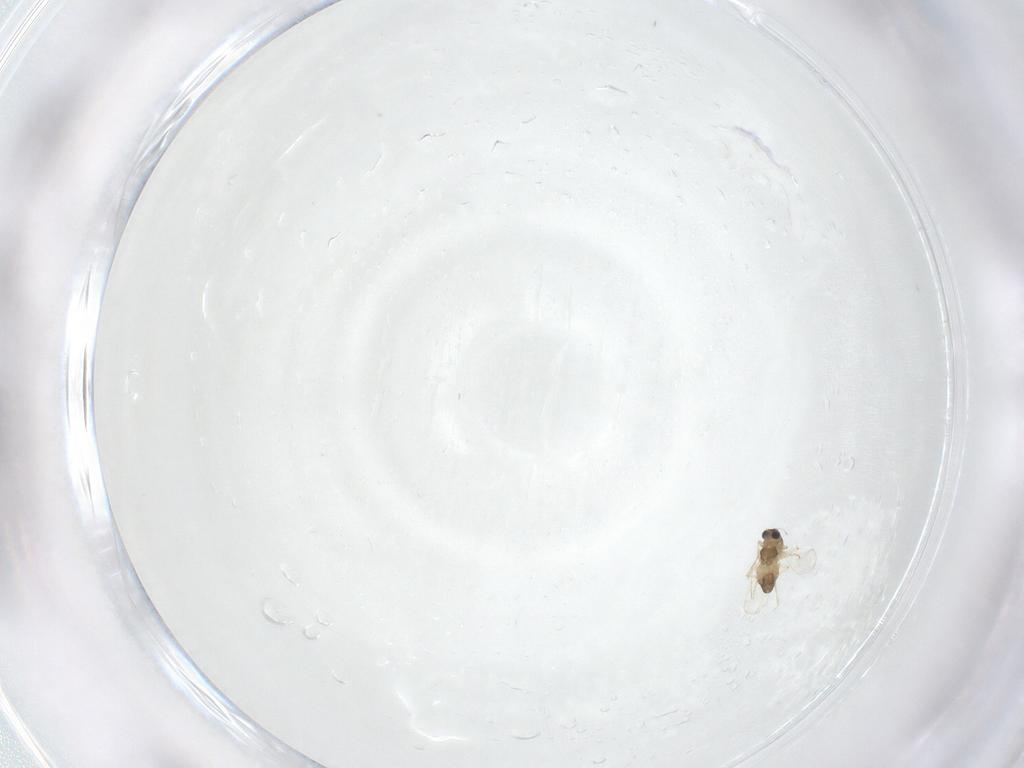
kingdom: Animalia
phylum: Arthropoda
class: Insecta
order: Diptera
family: Chironomidae
